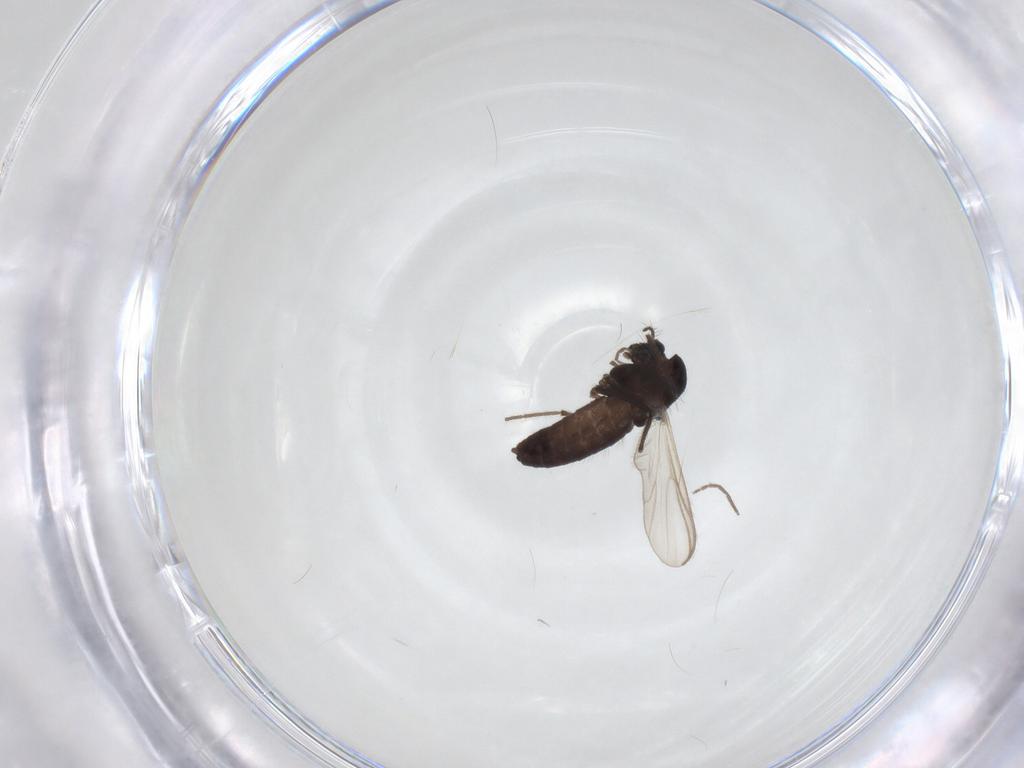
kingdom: Animalia
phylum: Arthropoda
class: Insecta
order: Diptera
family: Chironomidae
